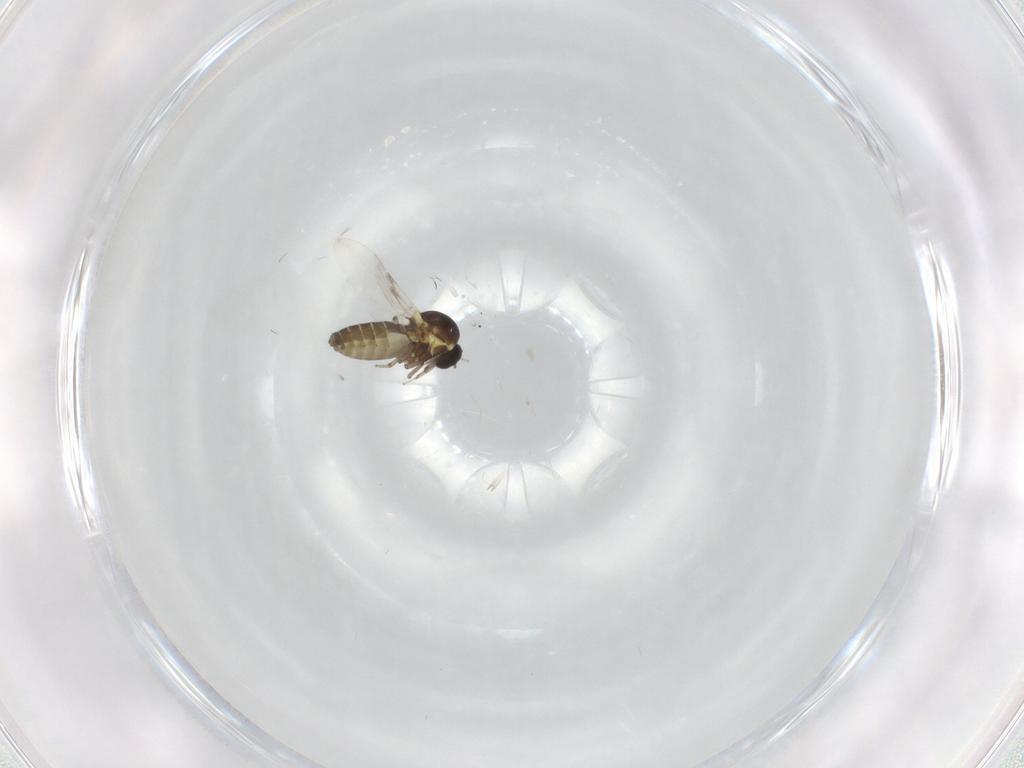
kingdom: Animalia
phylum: Arthropoda
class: Insecta
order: Diptera
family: Ceratopogonidae
